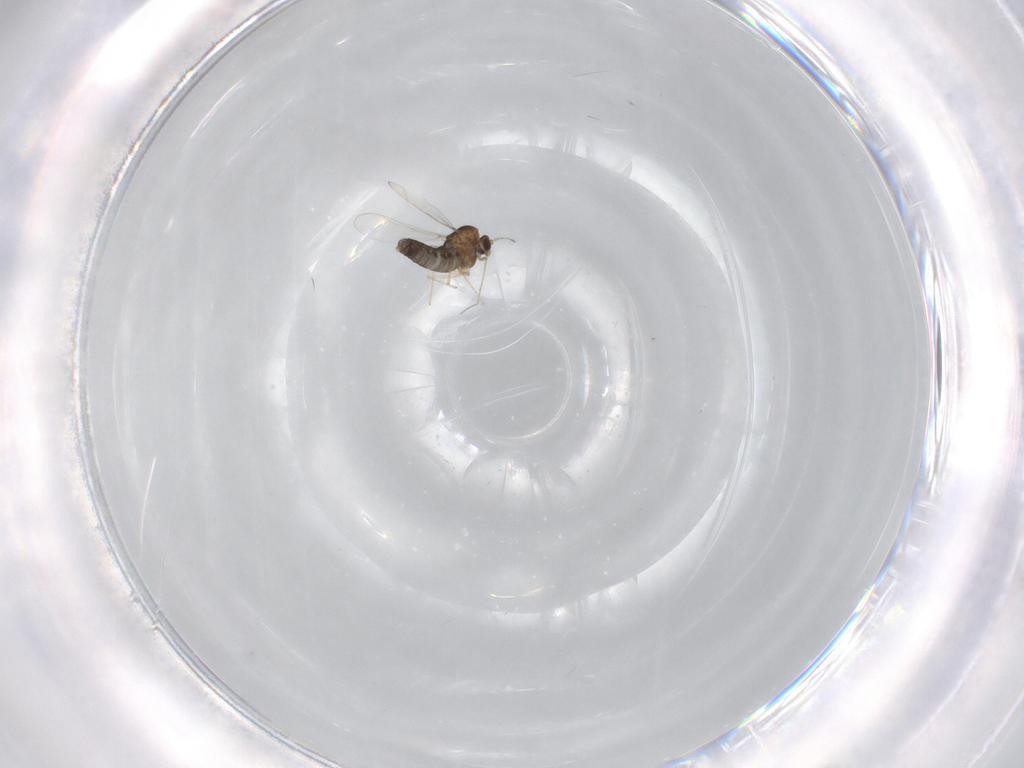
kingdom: Animalia
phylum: Arthropoda
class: Insecta
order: Diptera
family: Chironomidae
